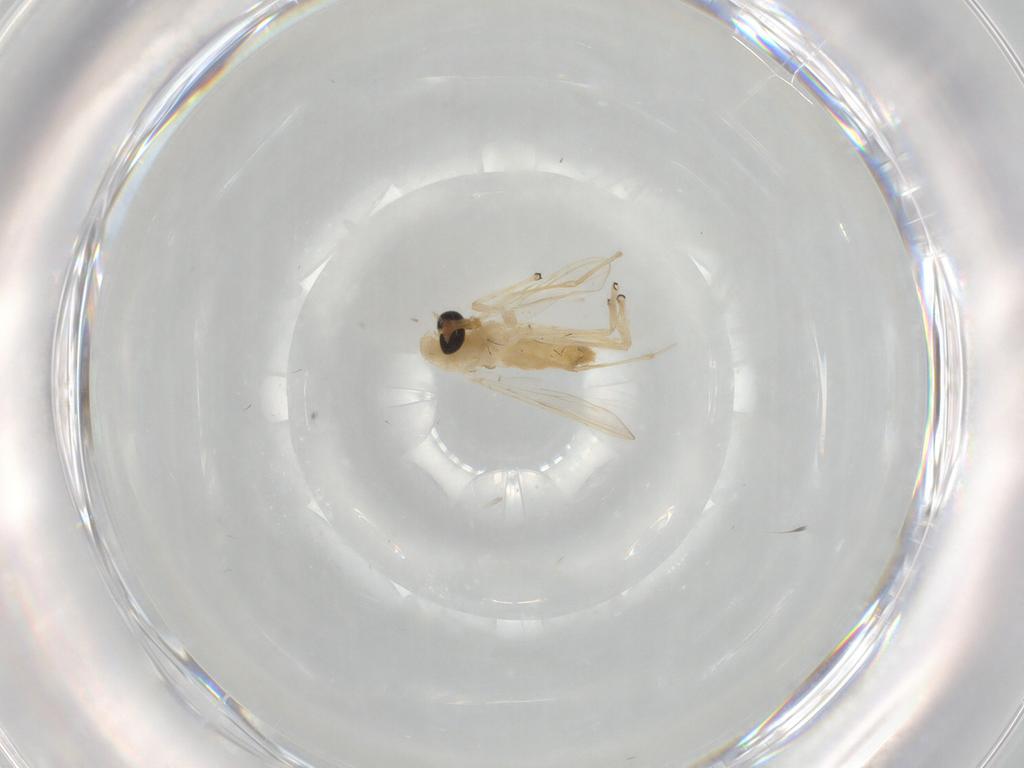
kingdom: Animalia
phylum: Arthropoda
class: Insecta
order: Diptera
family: Chironomidae
